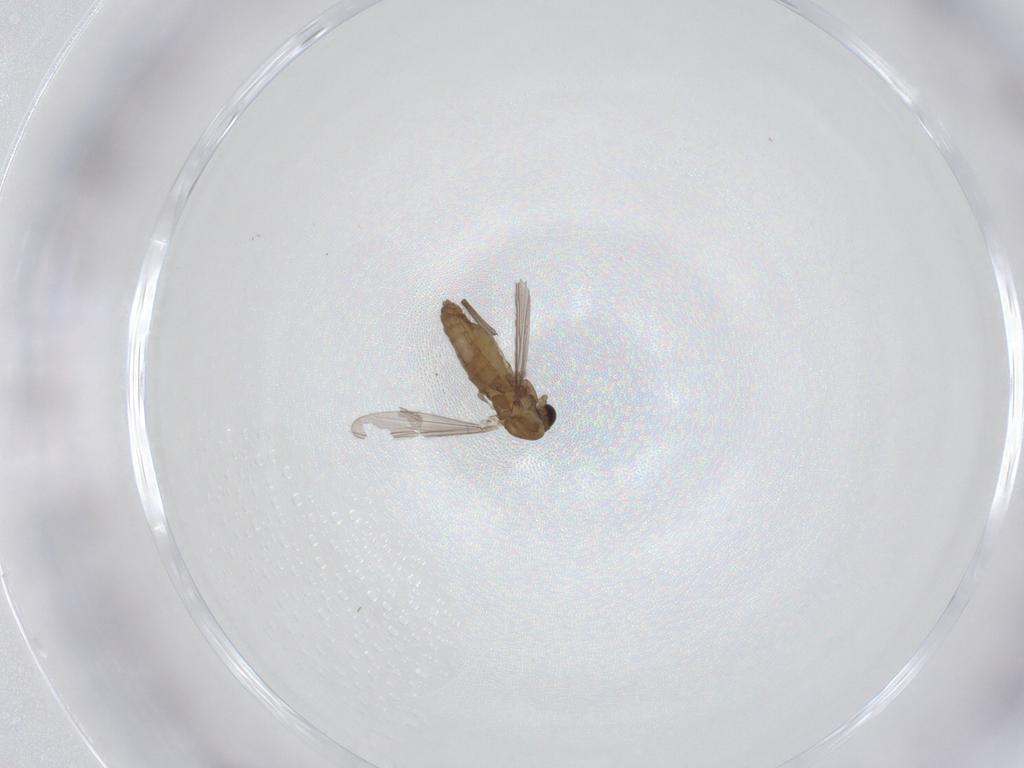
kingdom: Animalia
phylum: Arthropoda
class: Insecta
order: Diptera
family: Chironomidae
